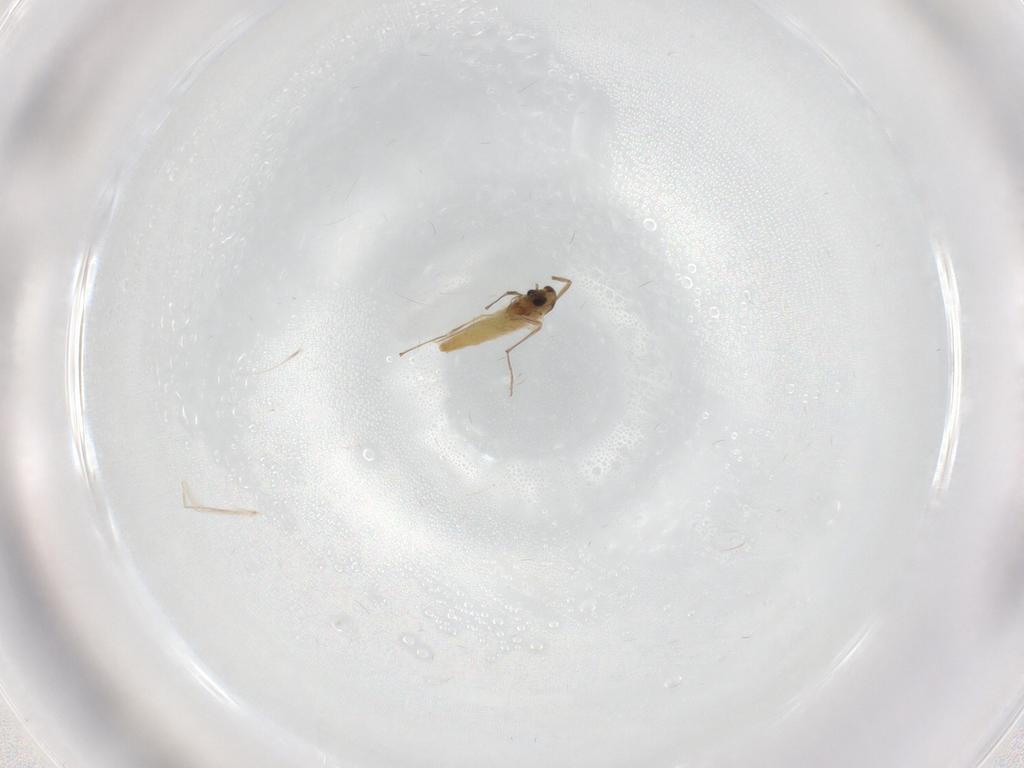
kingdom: Animalia
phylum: Arthropoda
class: Insecta
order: Diptera
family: Chironomidae
